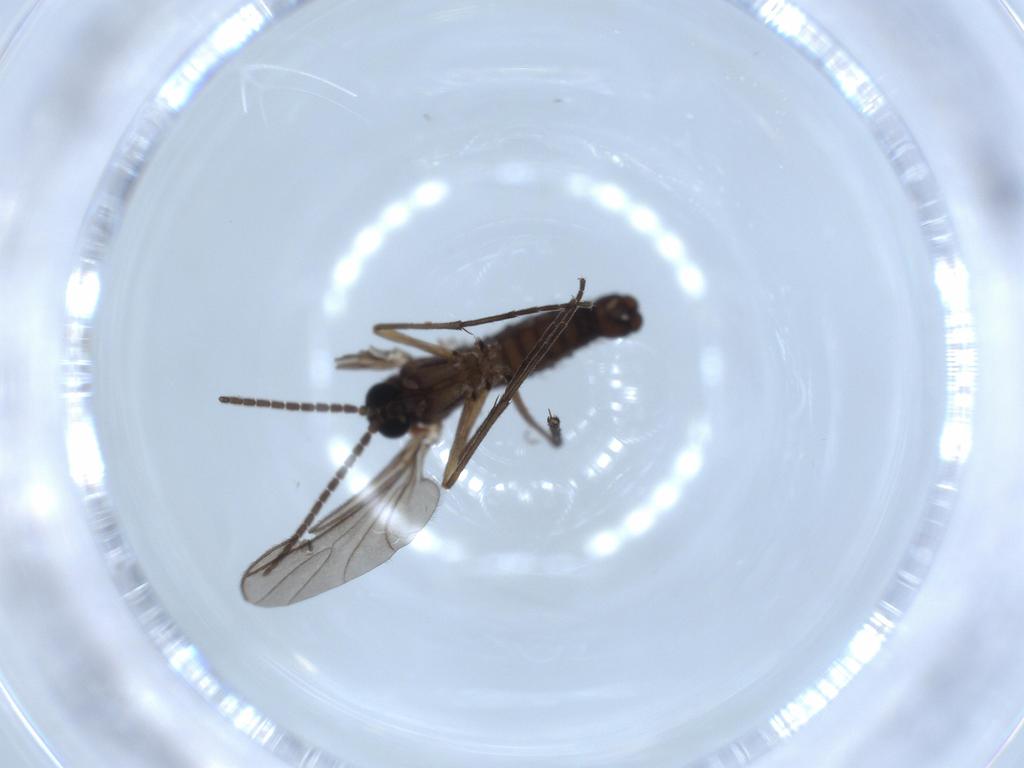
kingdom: Animalia
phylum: Arthropoda
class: Insecta
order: Diptera
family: Sciaridae
